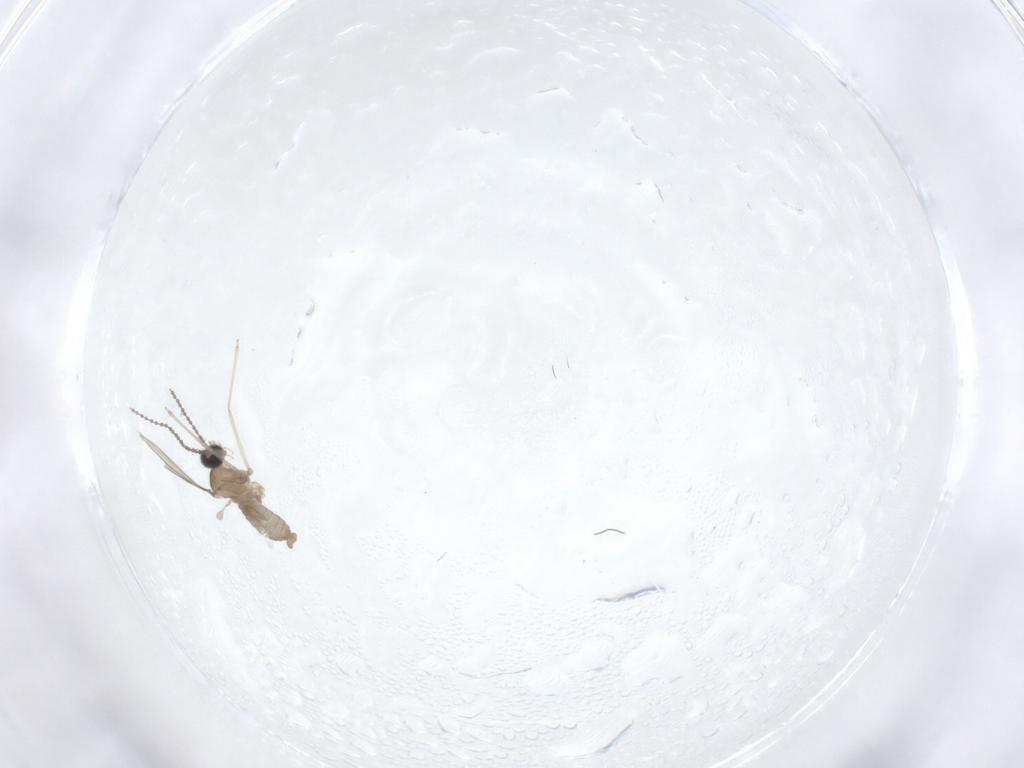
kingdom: Animalia
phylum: Arthropoda
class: Insecta
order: Diptera
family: Cecidomyiidae
